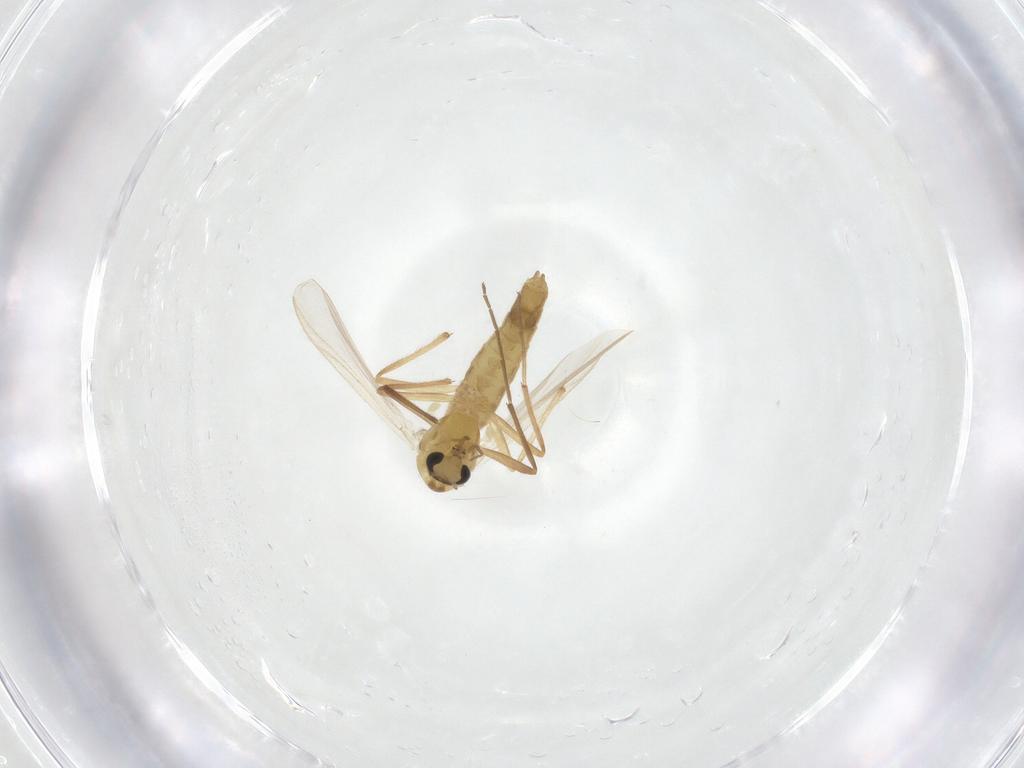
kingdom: Animalia
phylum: Arthropoda
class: Insecta
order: Diptera
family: Chironomidae
